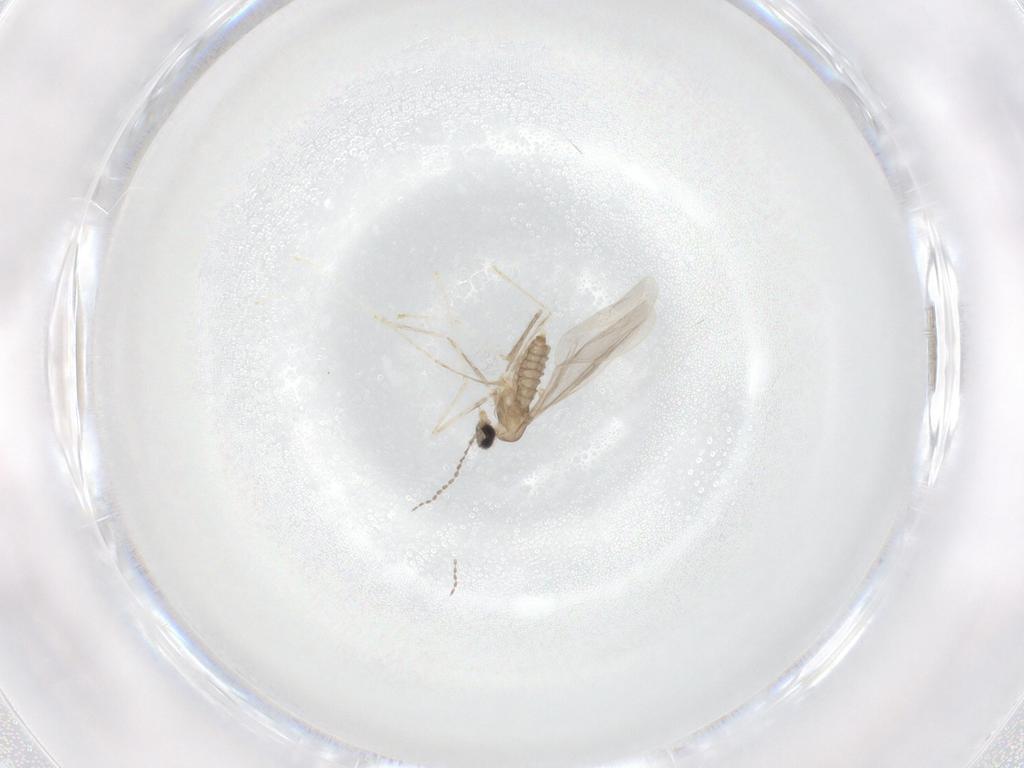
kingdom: Animalia
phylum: Arthropoda
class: Insecta
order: Diptera
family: Cecidomyiidae
